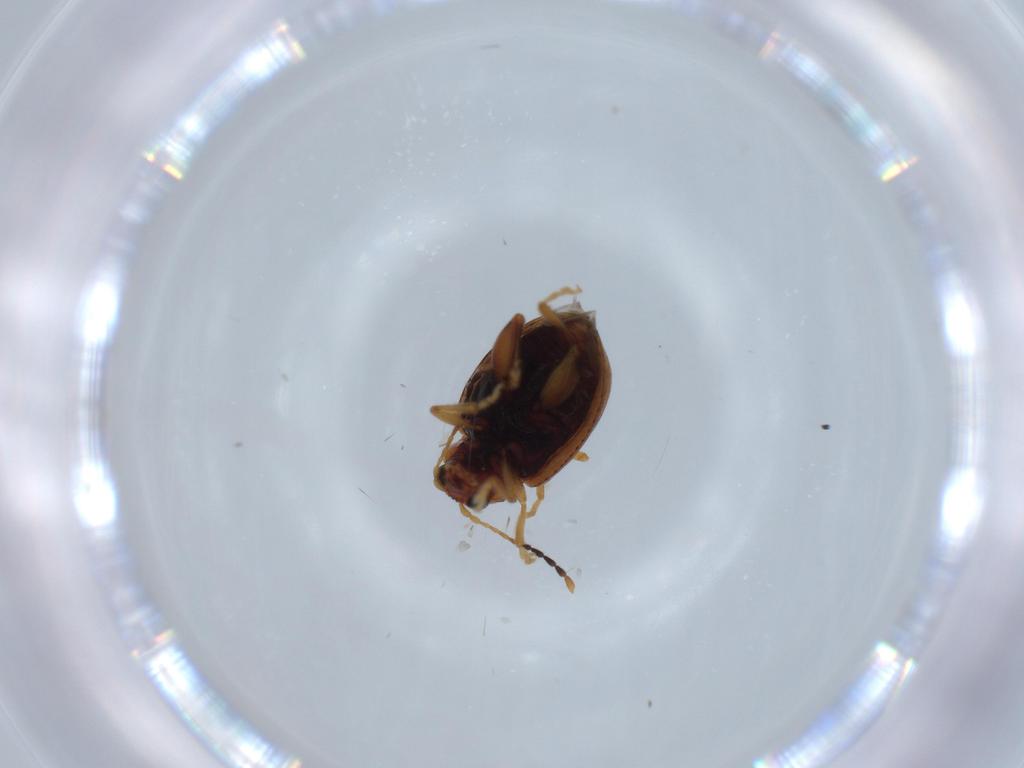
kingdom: Animalia
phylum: Arthropoda
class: Insecta
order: Coleoptera
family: Chrysomelidae
